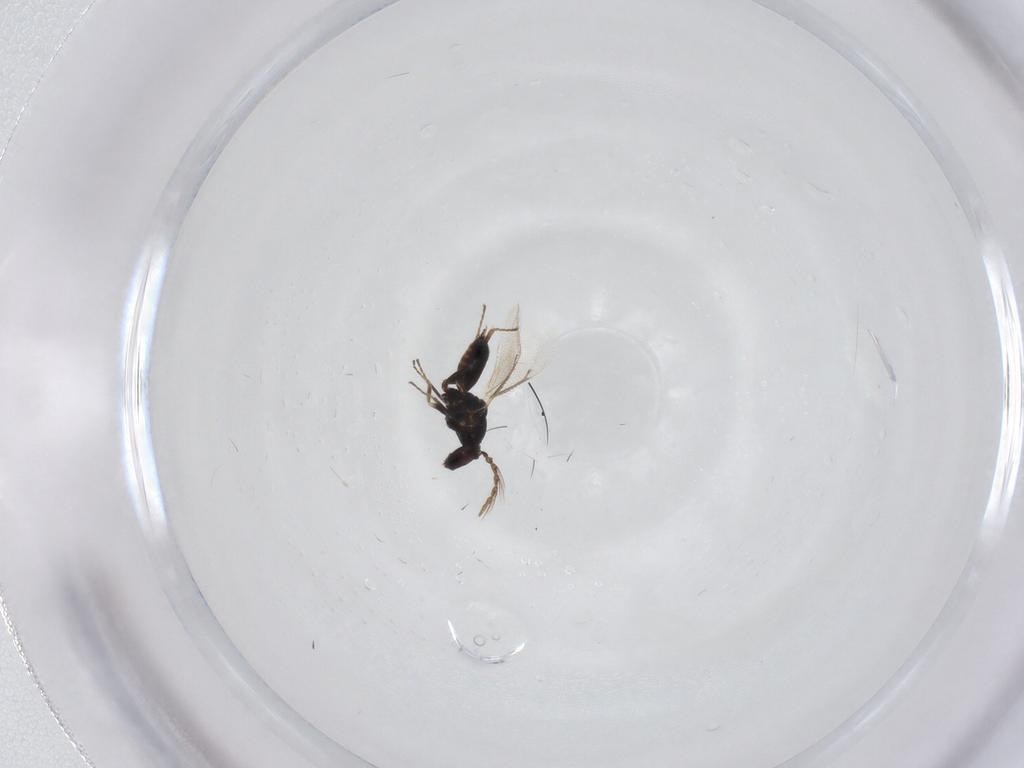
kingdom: Animalia
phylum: Arthropoda
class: Insecta
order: Hymenoptera
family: Eulophidae
